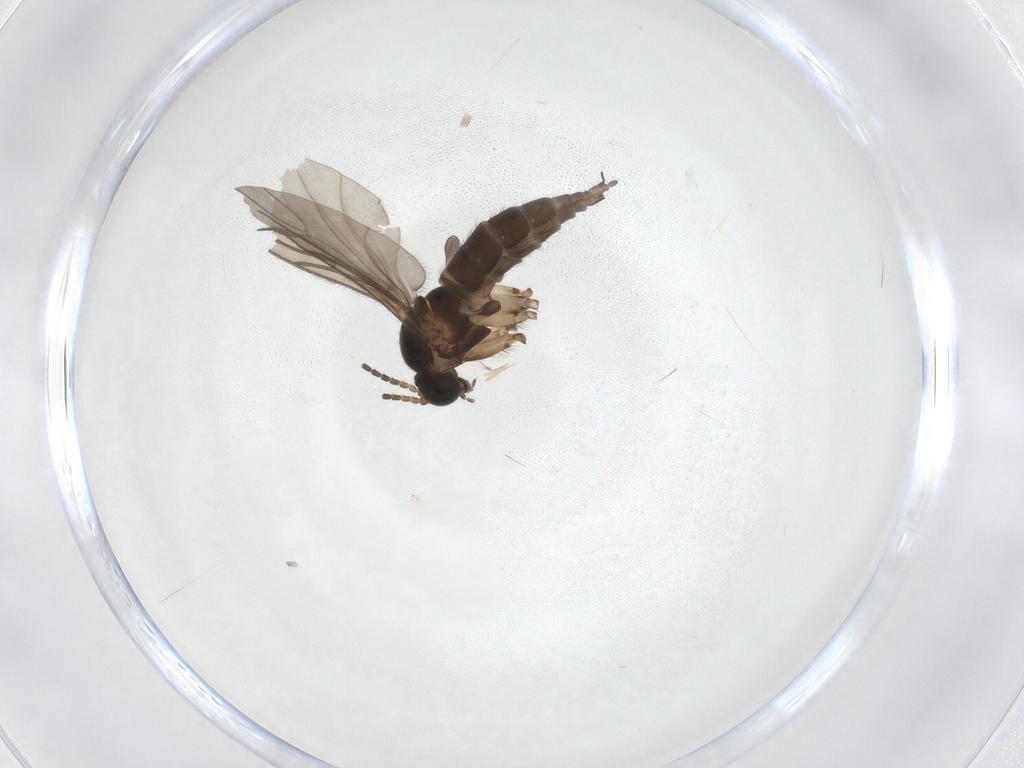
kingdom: Animalia
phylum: Arthropoda
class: Insecta
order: Diptera
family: Sciaridae
